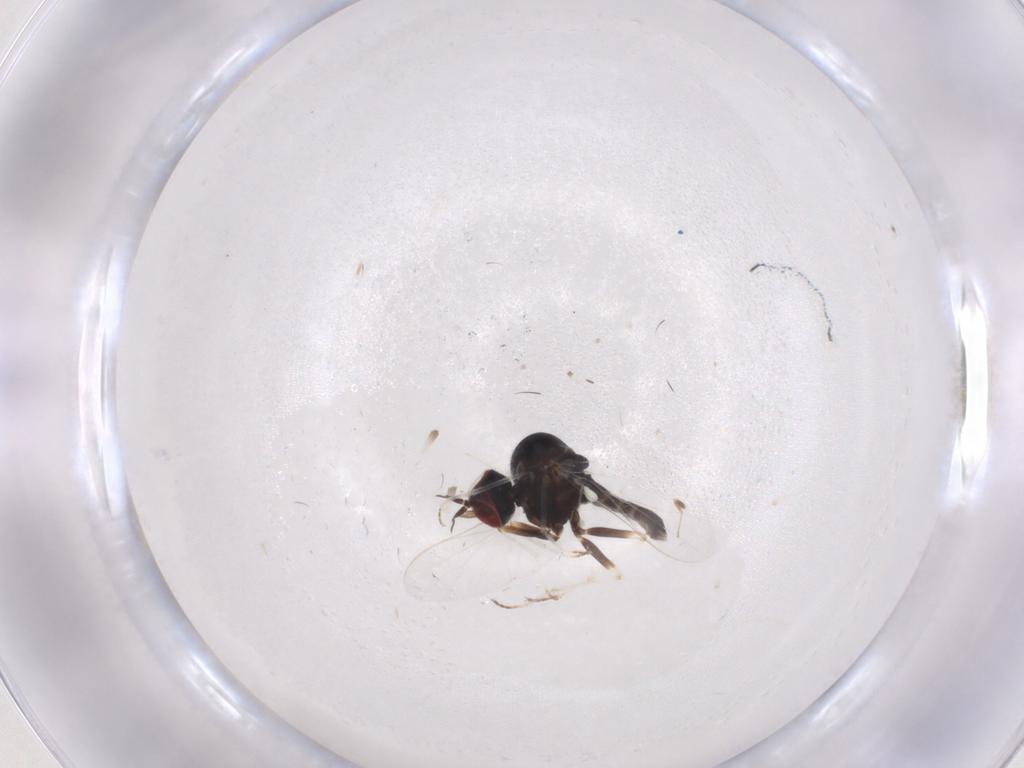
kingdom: Animalia
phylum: Arthropoda
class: Insecta
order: Diptera
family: Bombyliidae
